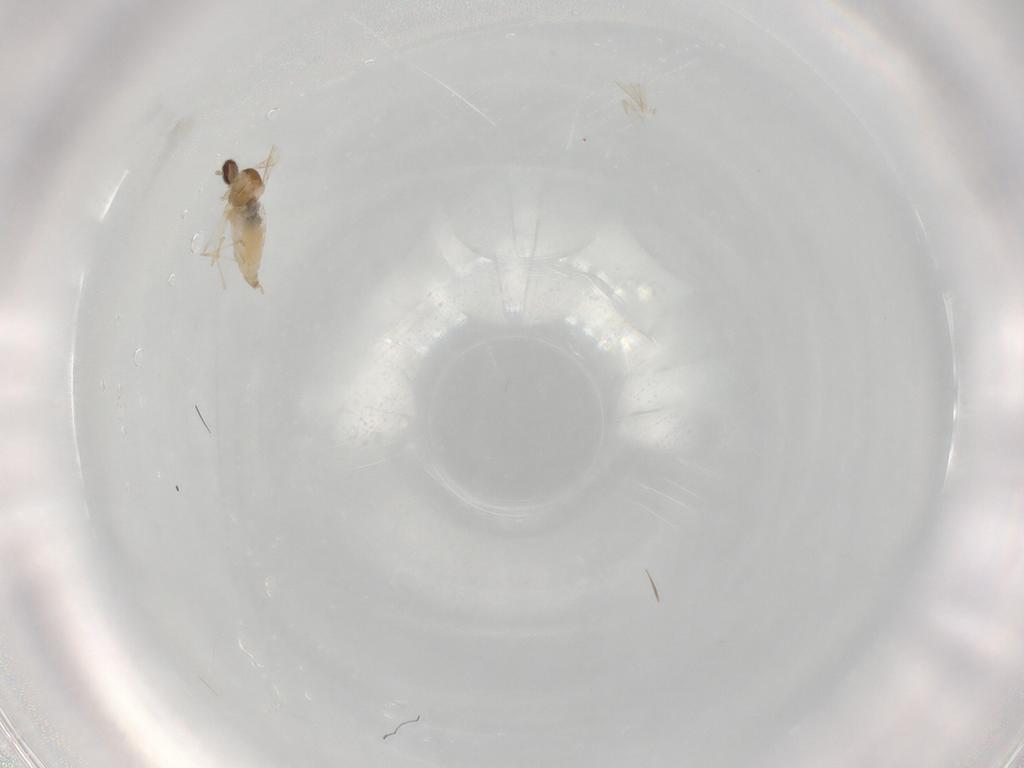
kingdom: Animalia
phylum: Arthropoda
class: Insecta
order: Diptera
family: Cecidomyiidae
